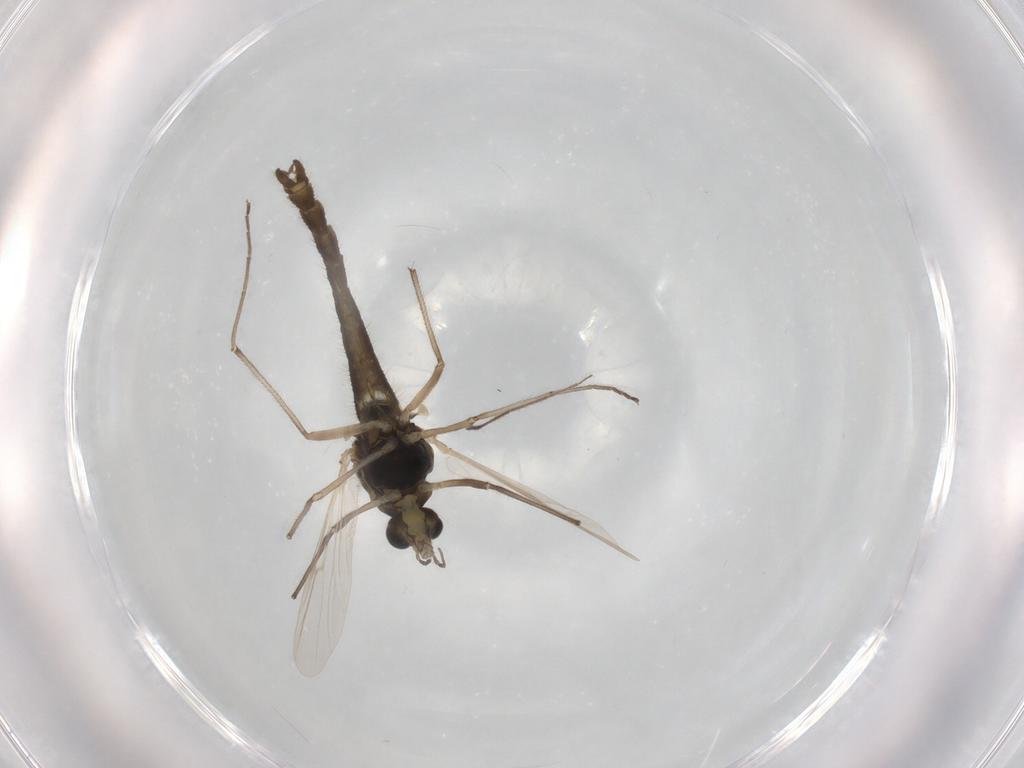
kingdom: Animalia
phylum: Arthropoda
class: Insecta
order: Diptera
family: Chironomidae
